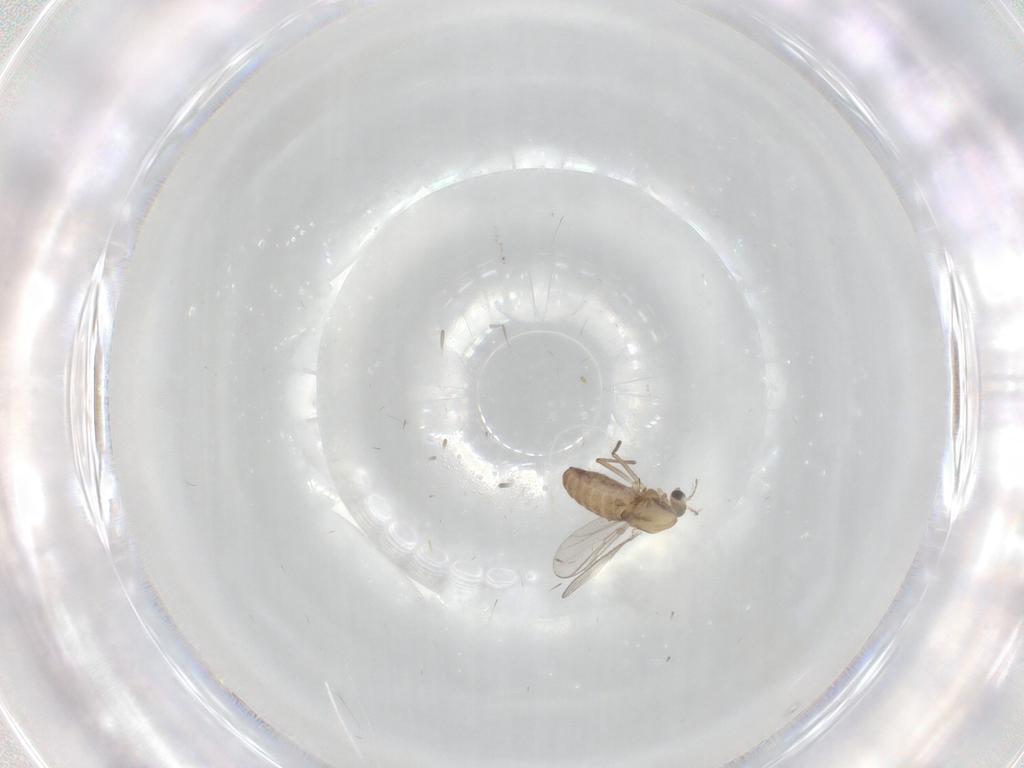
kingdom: Animalia
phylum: Arthropoda
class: Insecta
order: Diptera
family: Chironomidae
